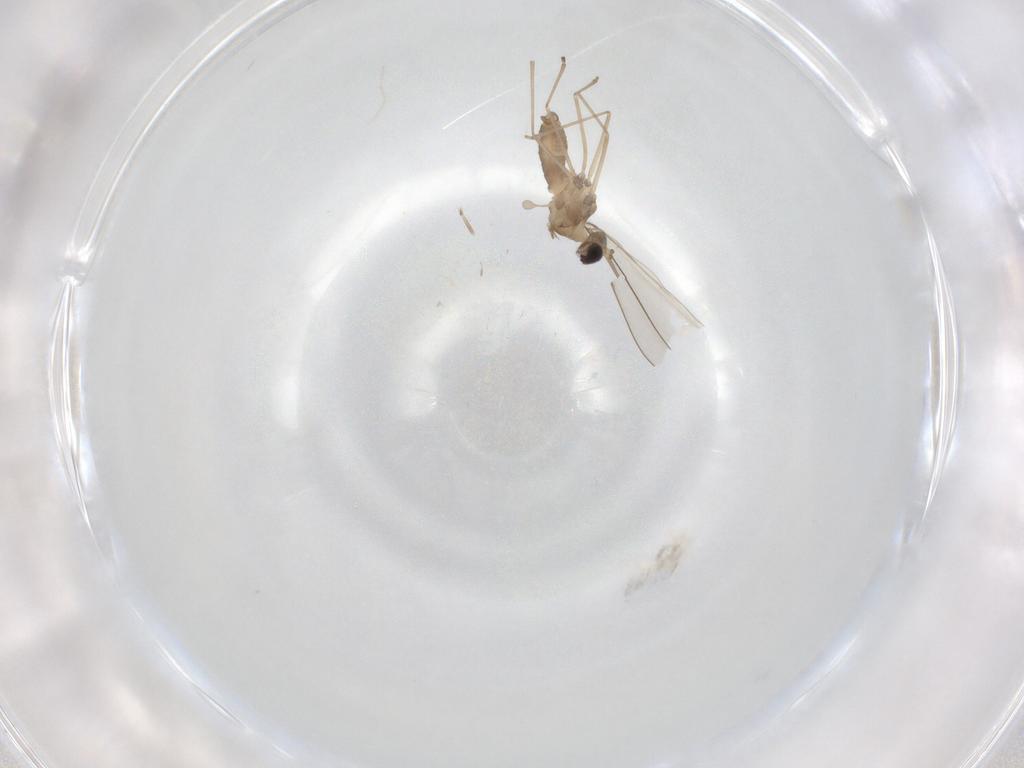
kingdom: Animalia
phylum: Arthropoda
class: Insecta
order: Diptera
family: Cecidomyiidae
